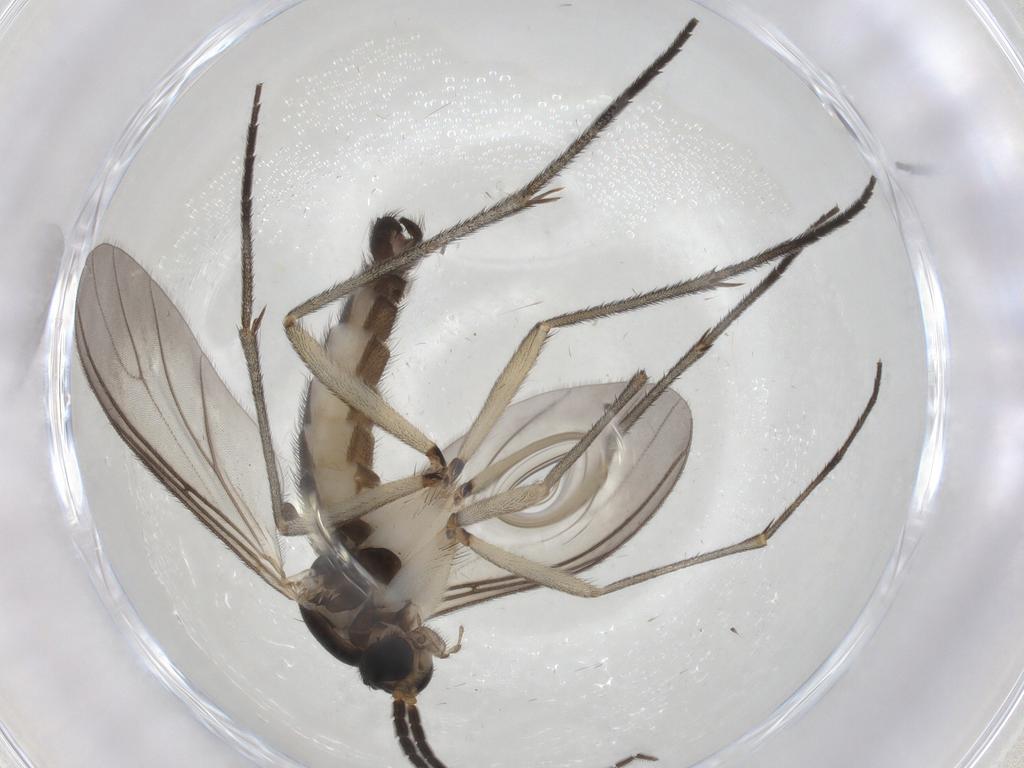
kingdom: Animalia
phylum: Arthropoda
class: Insecta
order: Diptera
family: Sciaridae
